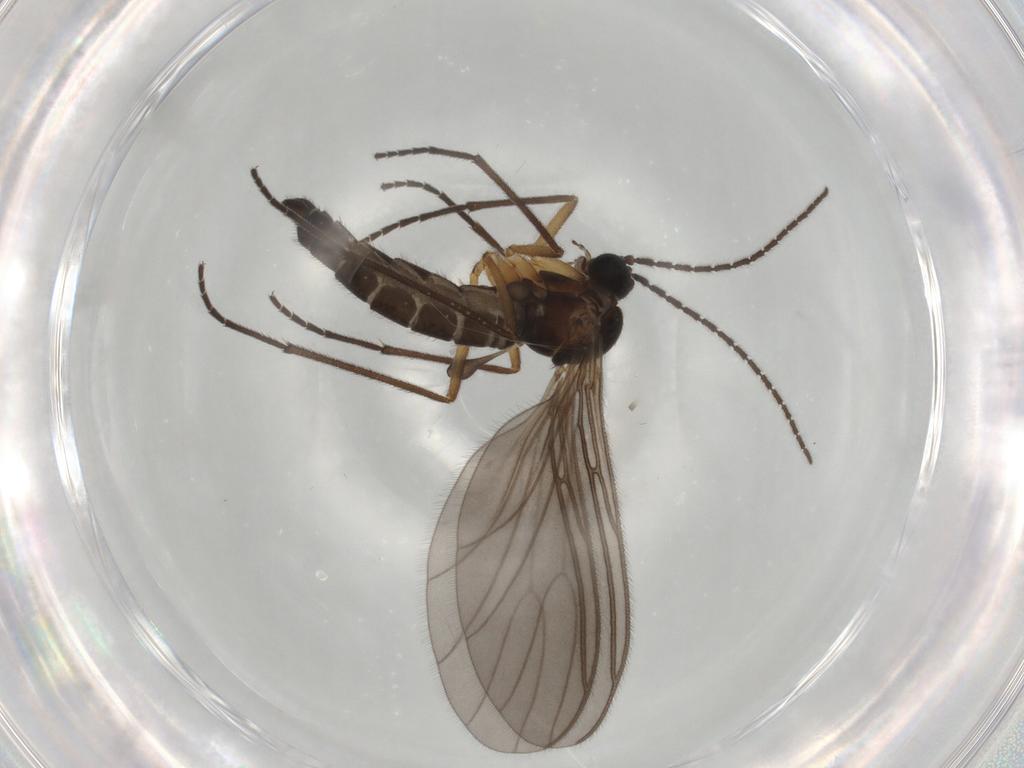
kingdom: Animalia
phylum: Arthropoda
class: Insecta
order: Diptera
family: Sciaridae
